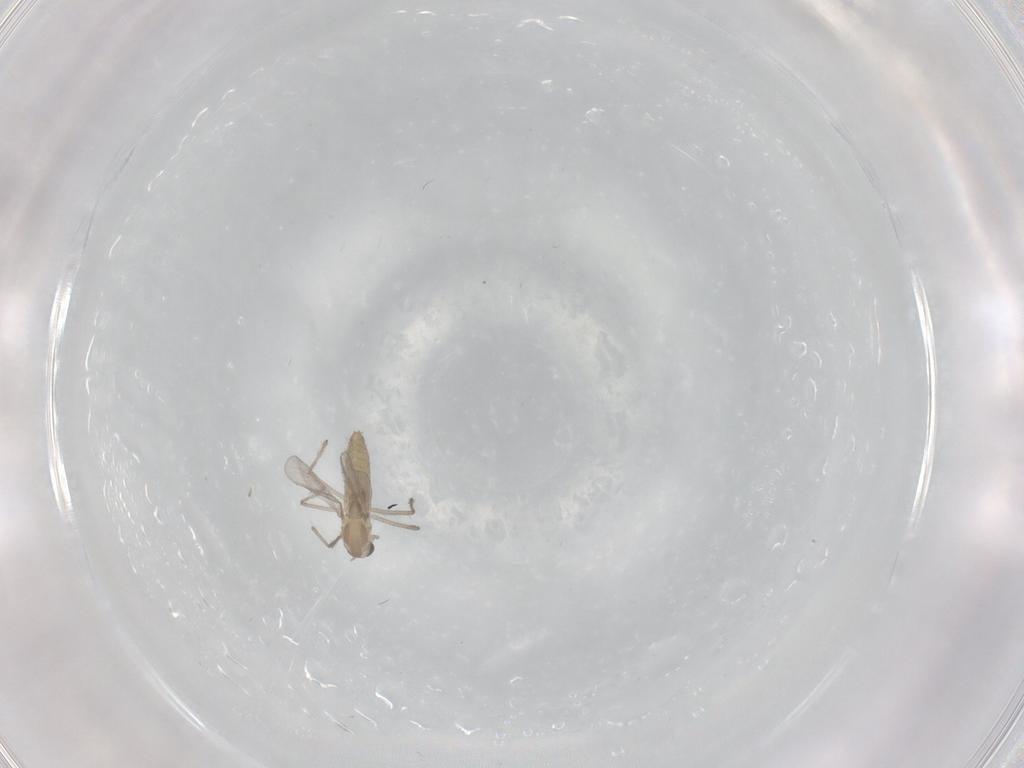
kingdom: Animalia
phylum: Arthropoda
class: Insecta
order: Diptera
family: Chironomidae
